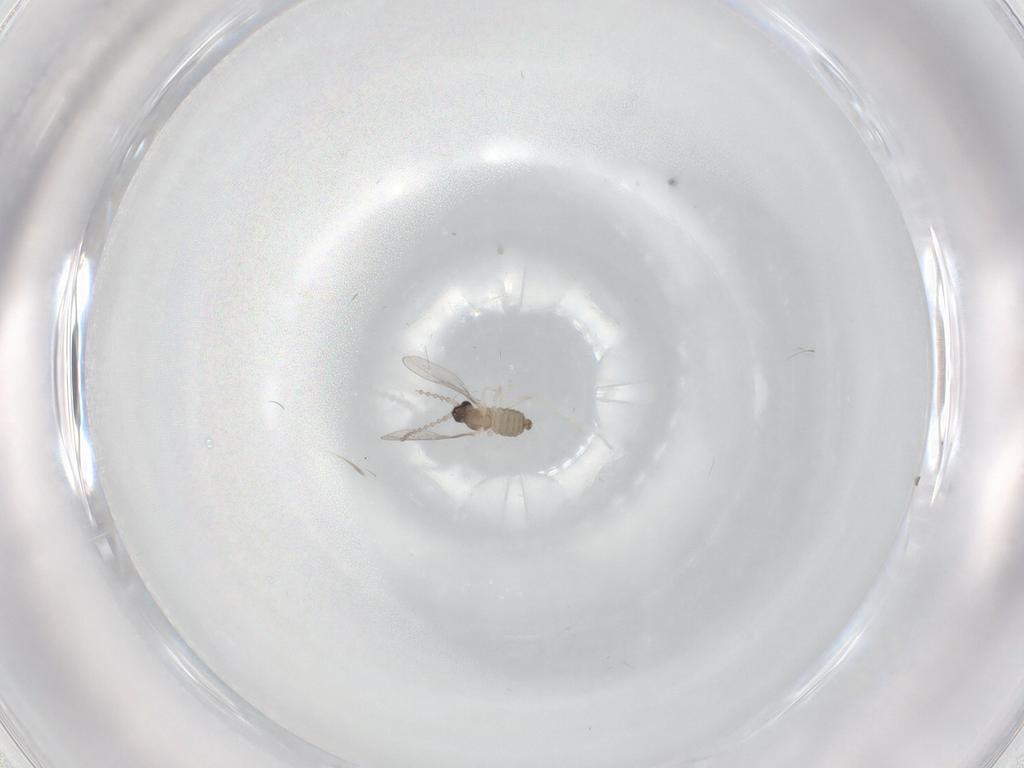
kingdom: Animalia
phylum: Arthropoda
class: Insecta
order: Diptera
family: Cecidomyiidae
